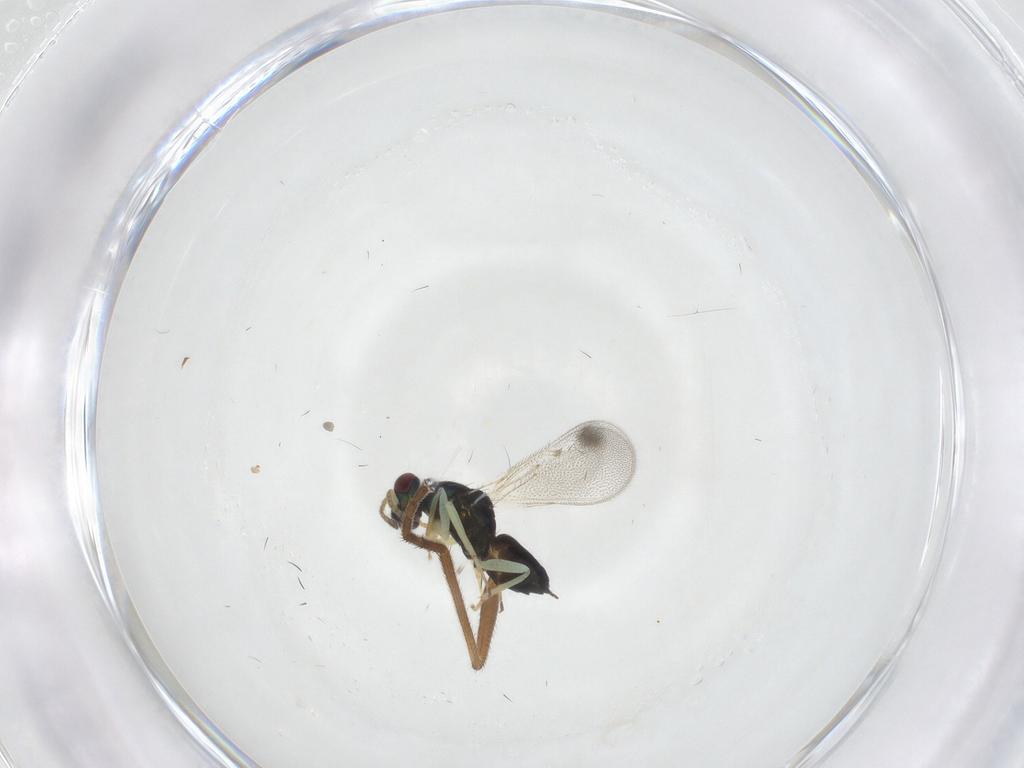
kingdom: Animalia
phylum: Arthropoda
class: Insecta
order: Hymenoptera
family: Eulophidae
